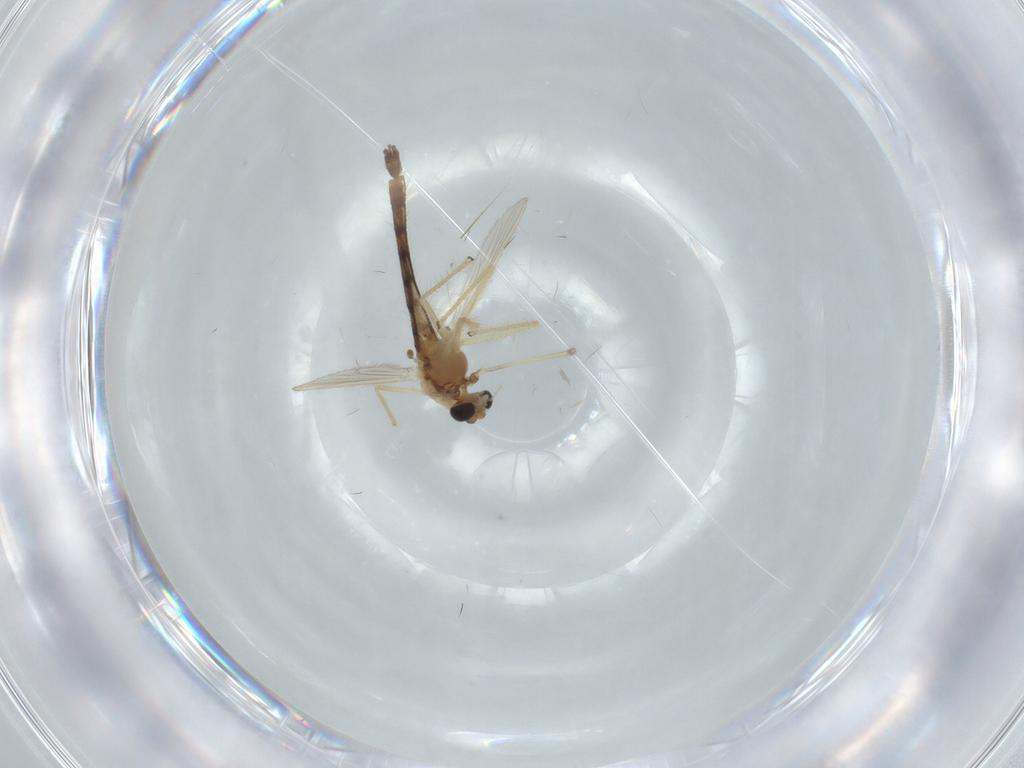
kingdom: Animalia
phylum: Arthropoda
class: Insecta
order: Diptera
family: Chironomidae
